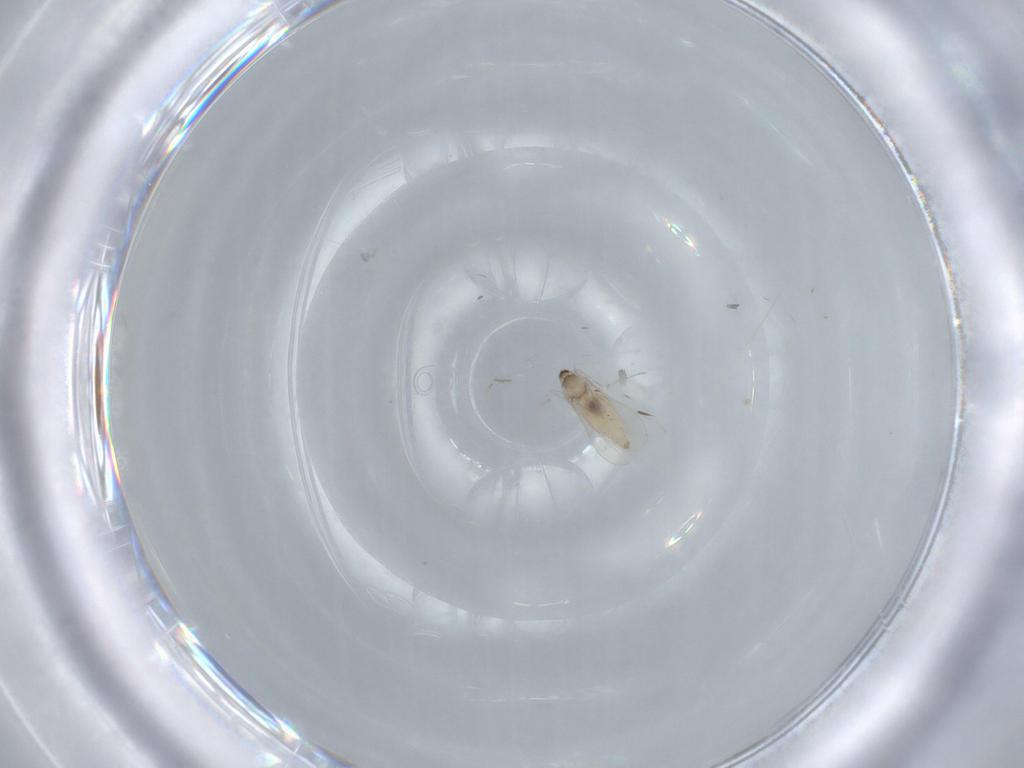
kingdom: Animalia
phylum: Arthropoda
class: Insecta
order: Diptera
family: Cecidomyiidae
